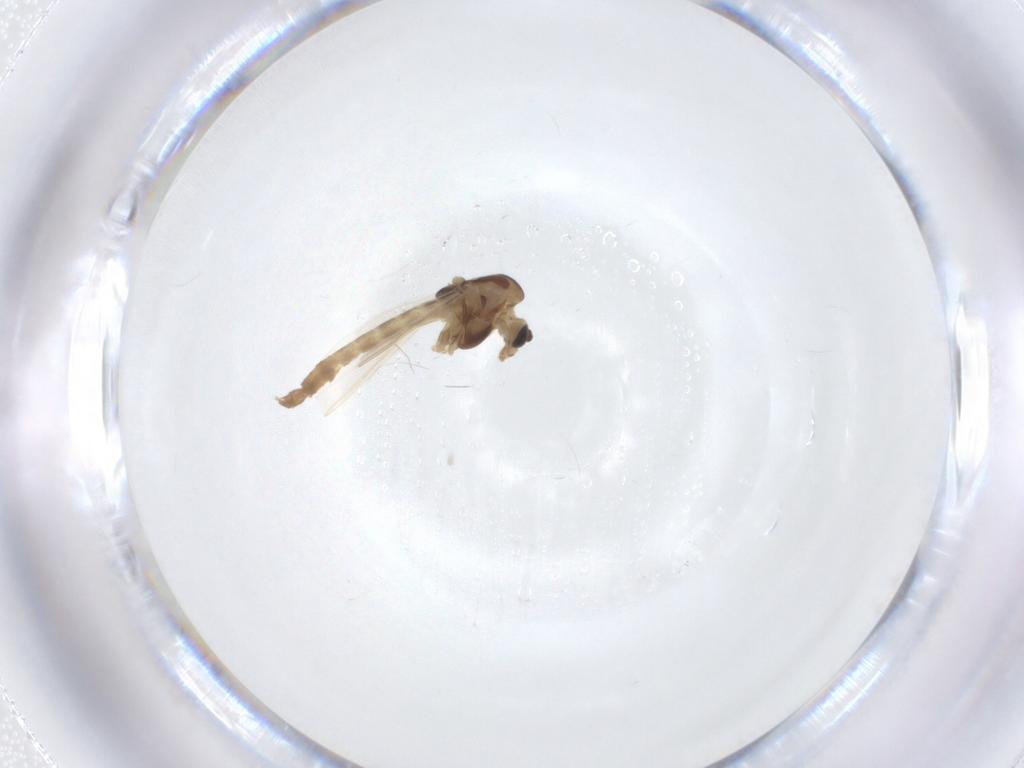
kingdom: Animalia
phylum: Arthropoda
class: Insecta
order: Diptera
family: Chironomidae
